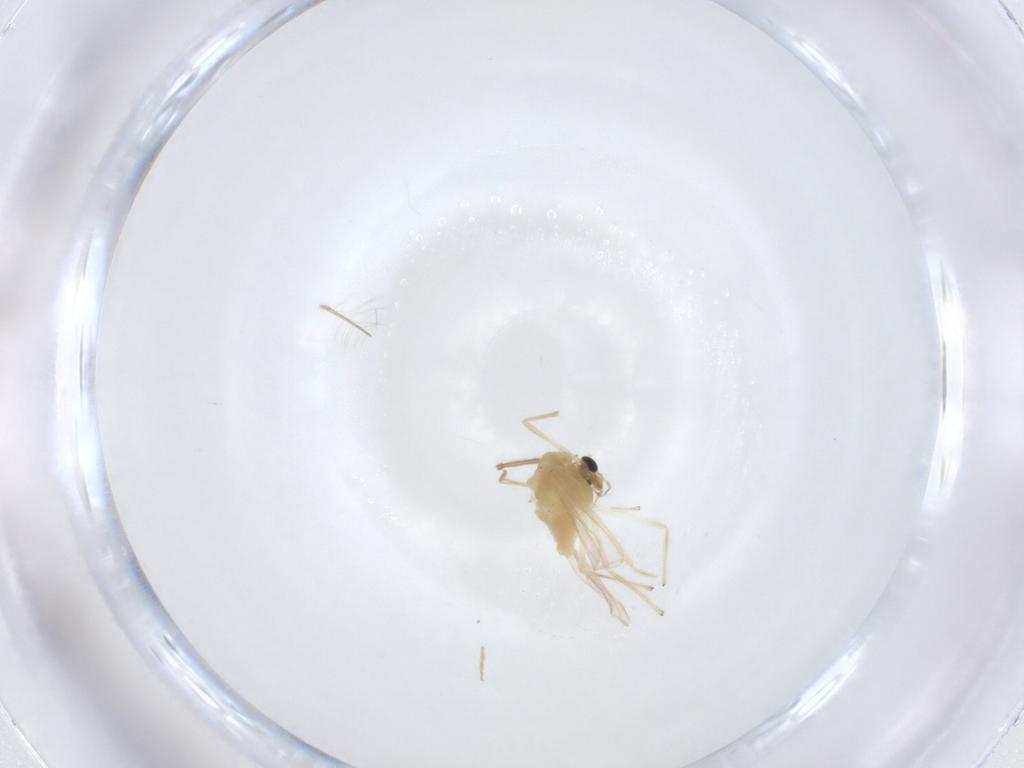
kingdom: Animalia
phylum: Arthropoda
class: Insecta
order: Diptera
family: Chironomidae
